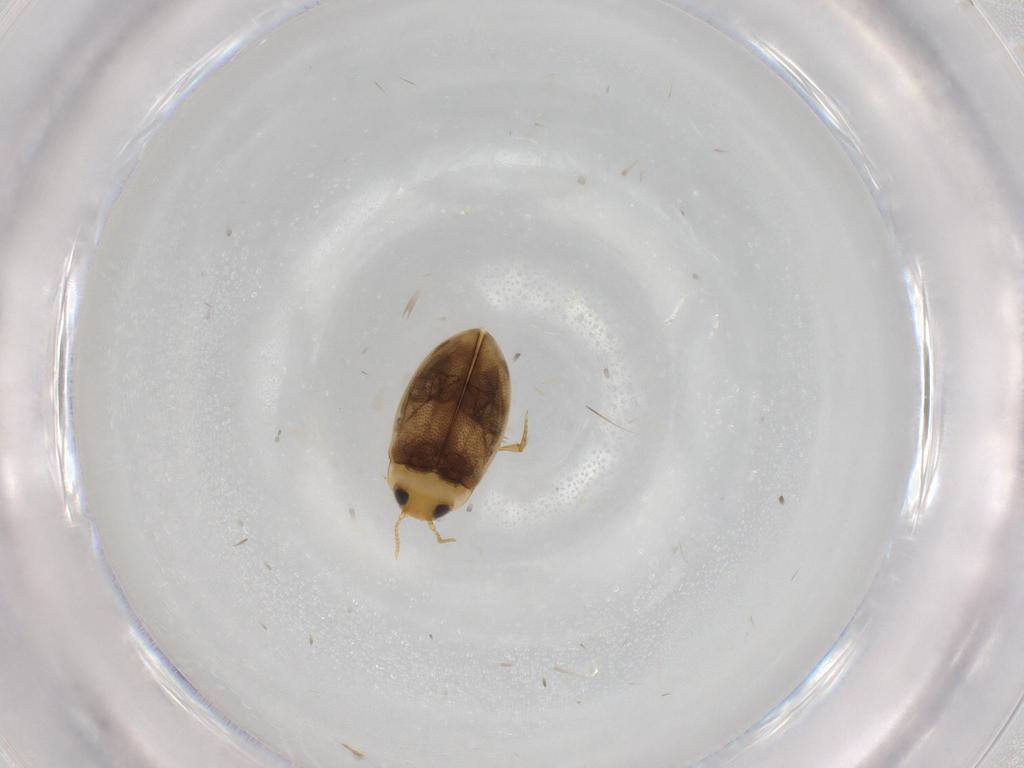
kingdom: Animalia
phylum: Arthropoda
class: Insecta
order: Coleoptera
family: Dytiscidae
